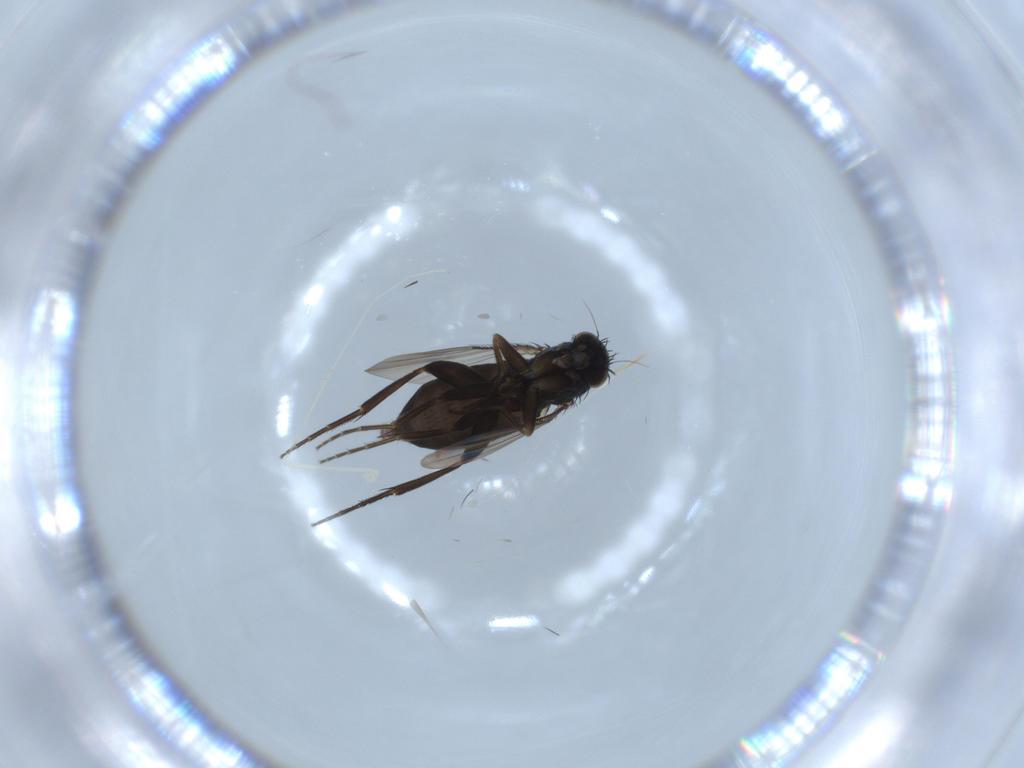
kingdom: Animalia
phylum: Arthropoda
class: Insecta
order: Diptera
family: Phoridae
